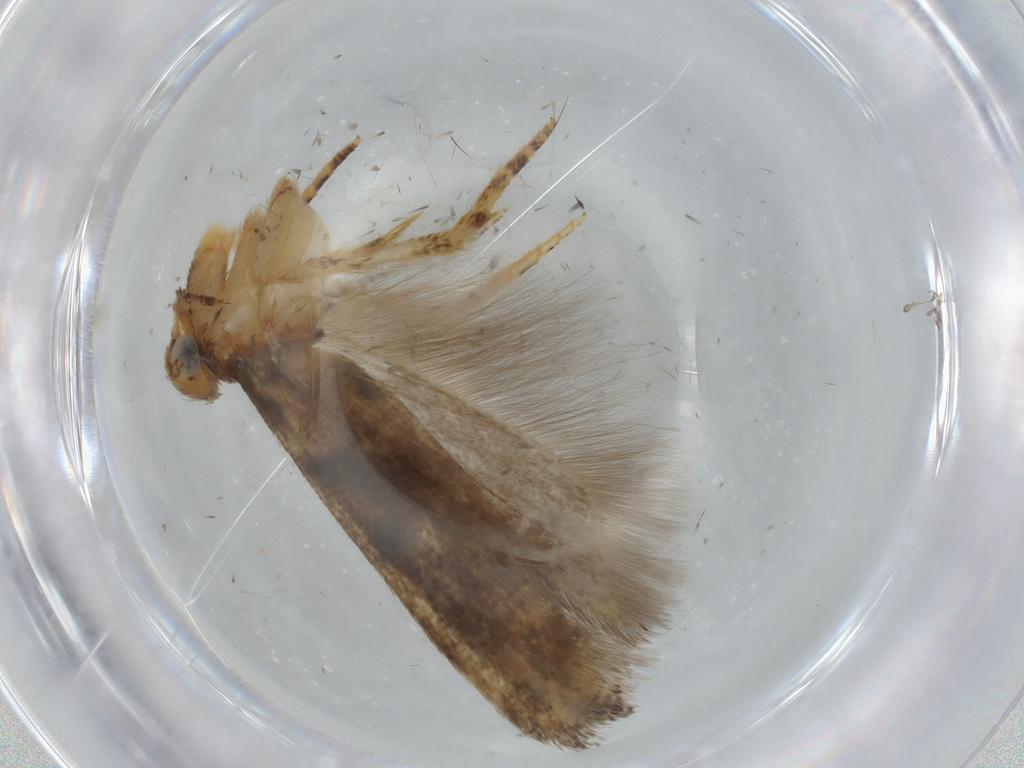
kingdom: Animalia
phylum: Arthropoda
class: Insecta
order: Lepidoptera
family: Gelechiidae
